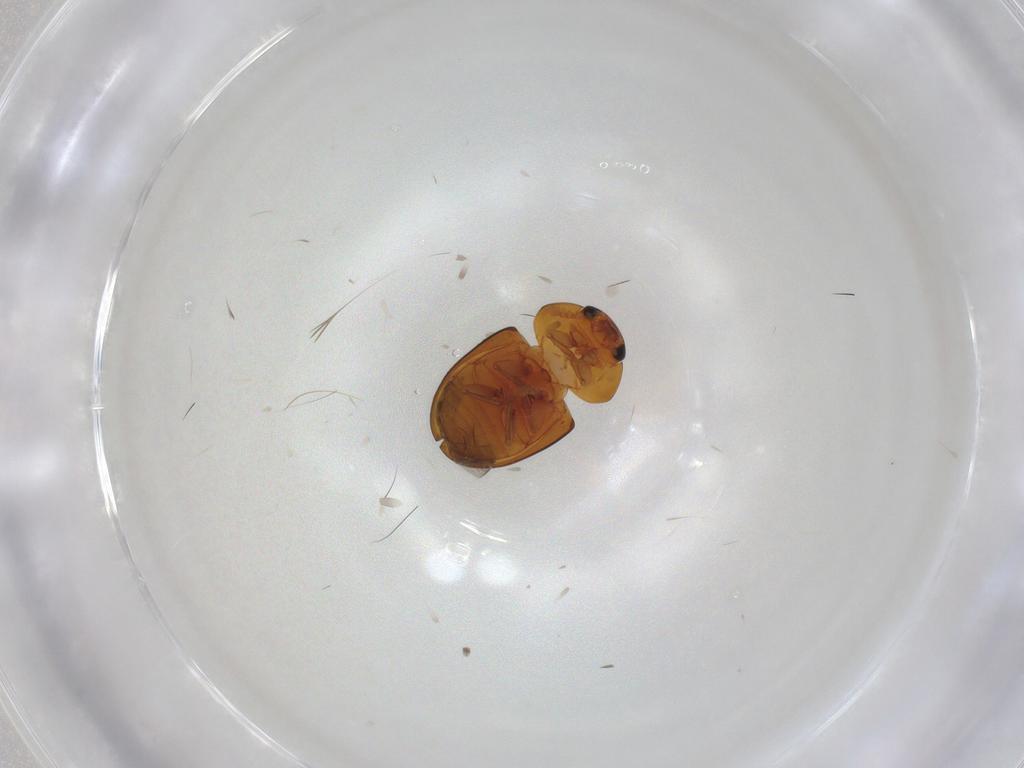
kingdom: Animalia
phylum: Arthropoda
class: Insecta
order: Coleoptera
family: Phalacridae
